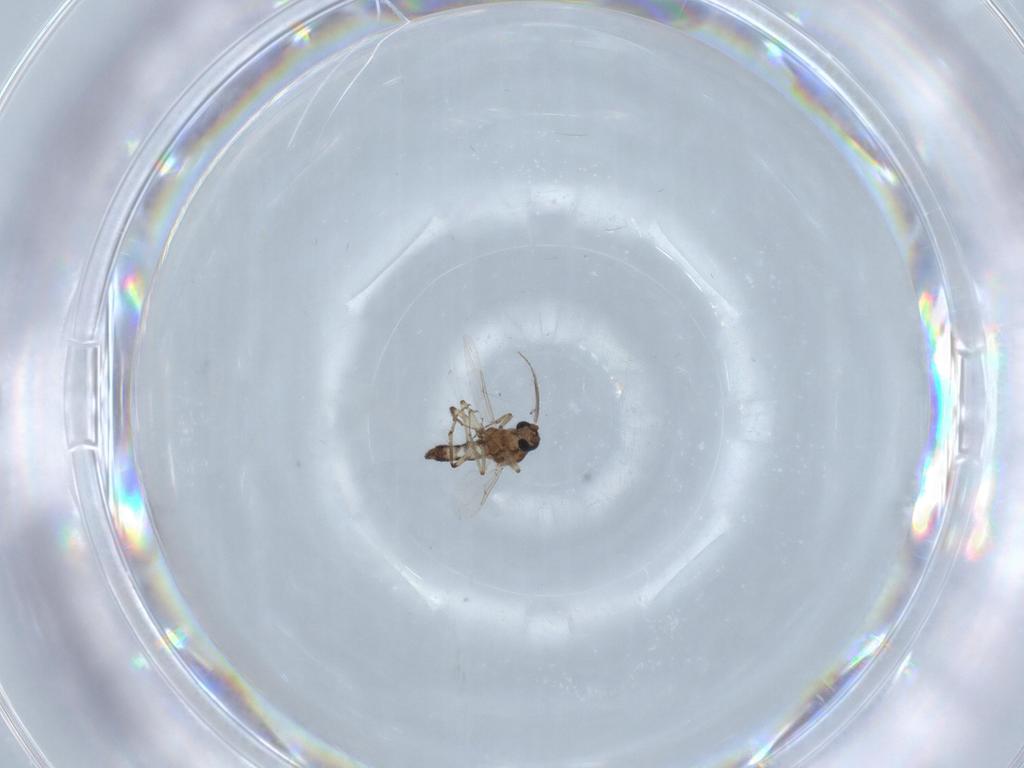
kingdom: Animalia
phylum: Arthropoda
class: Insecta
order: Diptera
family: Ceratopogonidae
